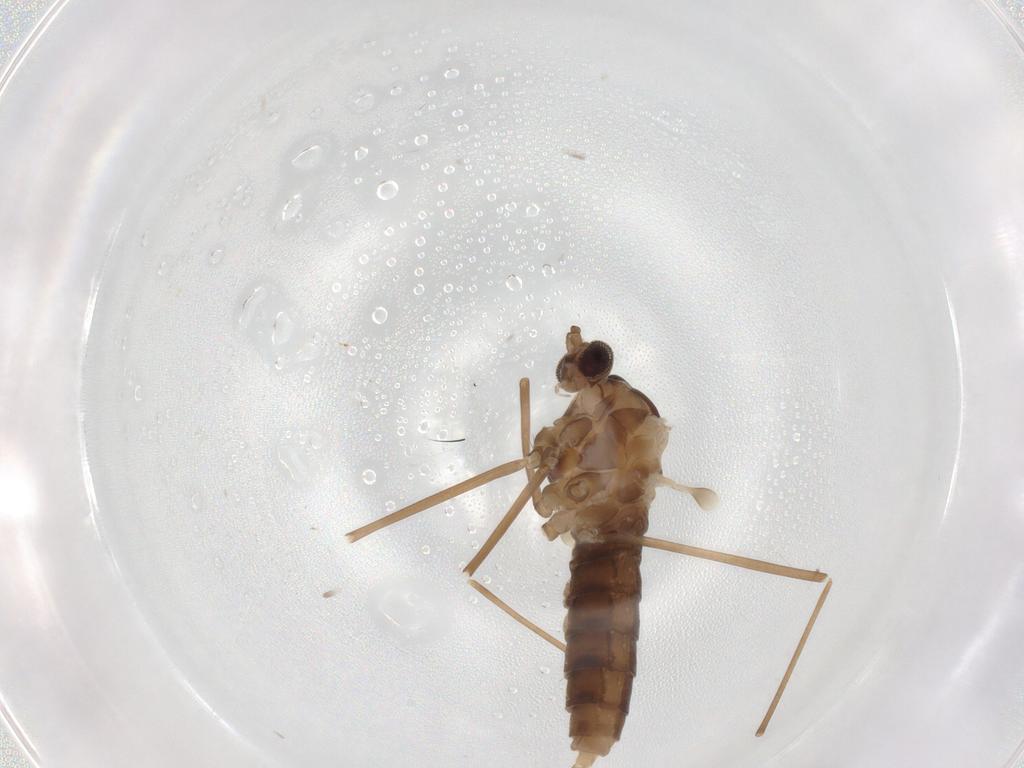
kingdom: Animalia
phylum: Arthropoda
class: Insecta
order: Diptera
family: Cecidomyiidae
